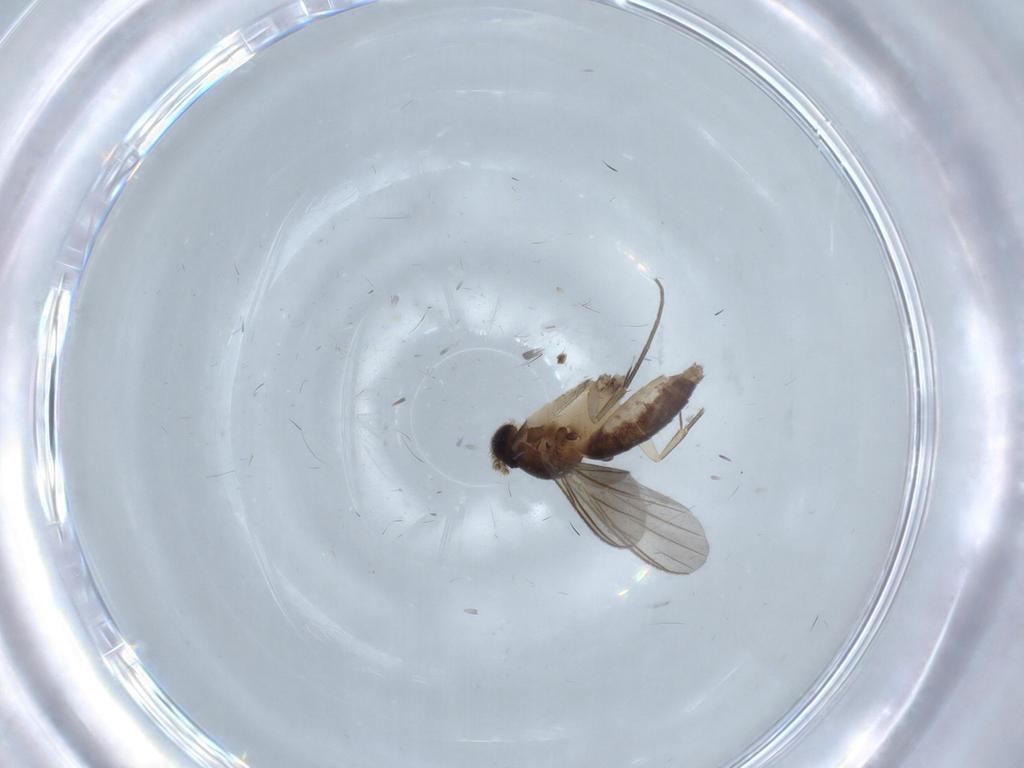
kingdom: Animalia
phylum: Arthropoda
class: Insecta
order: Diptera
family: Mycetophilidae
